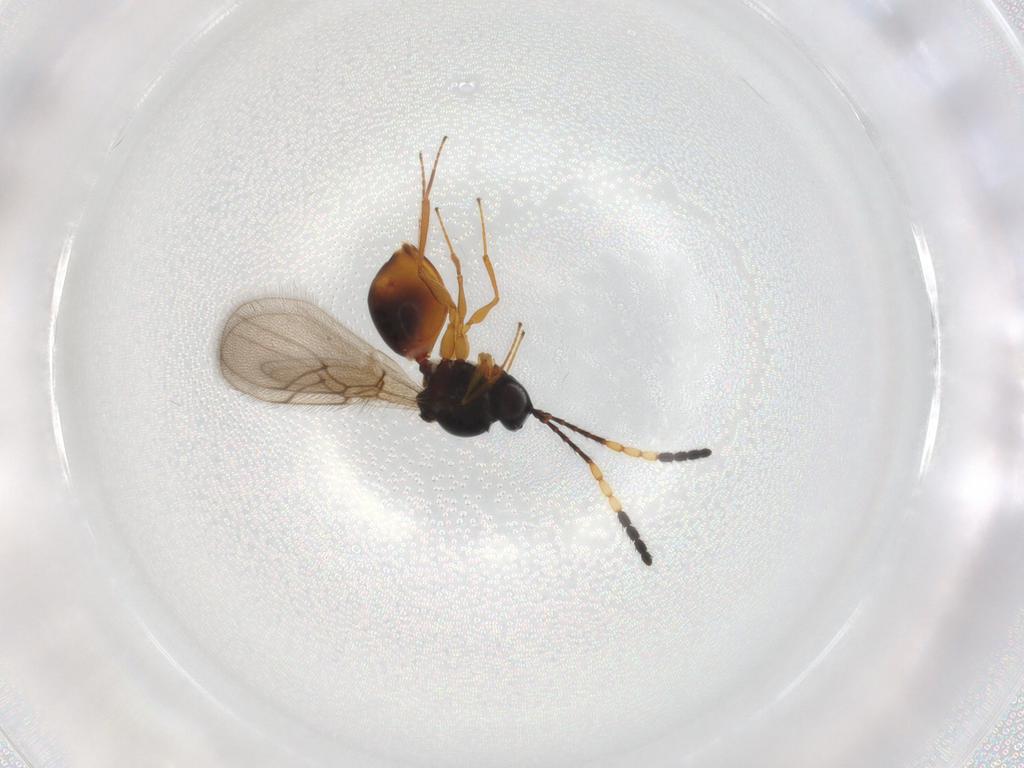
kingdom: Animalia
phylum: Arthropoda
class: Insecta
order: Hymenoptera
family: Figitidae
